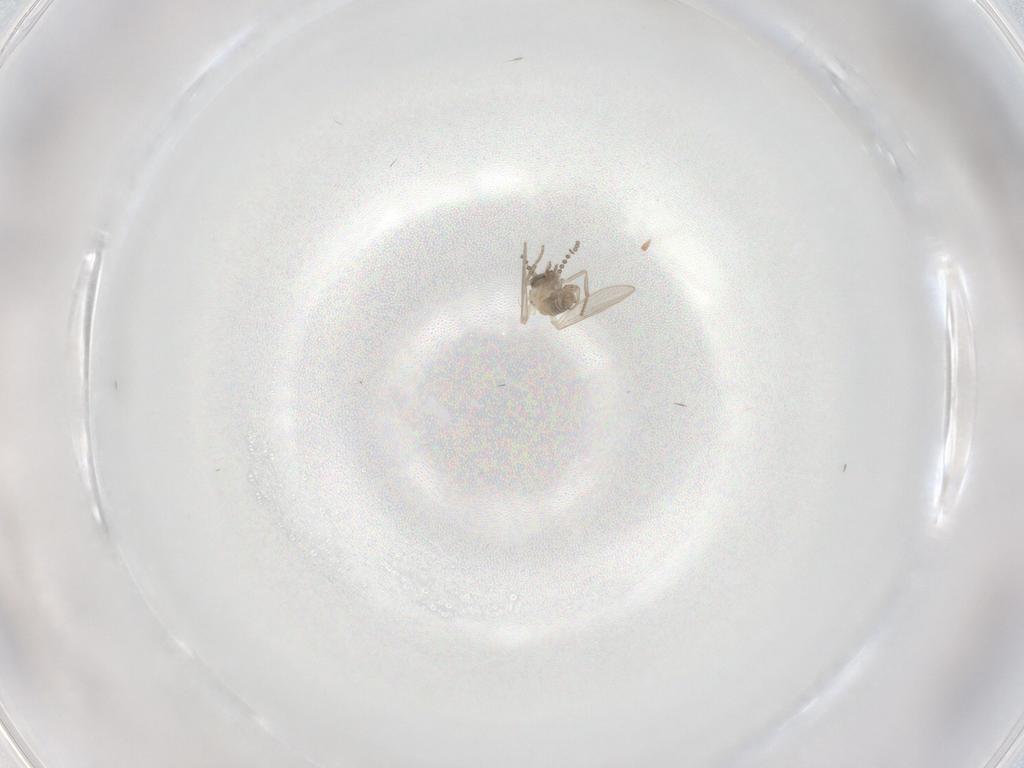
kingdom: Animalia
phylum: Arthropoda
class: Insecta
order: Diptera
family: Psychodidae
